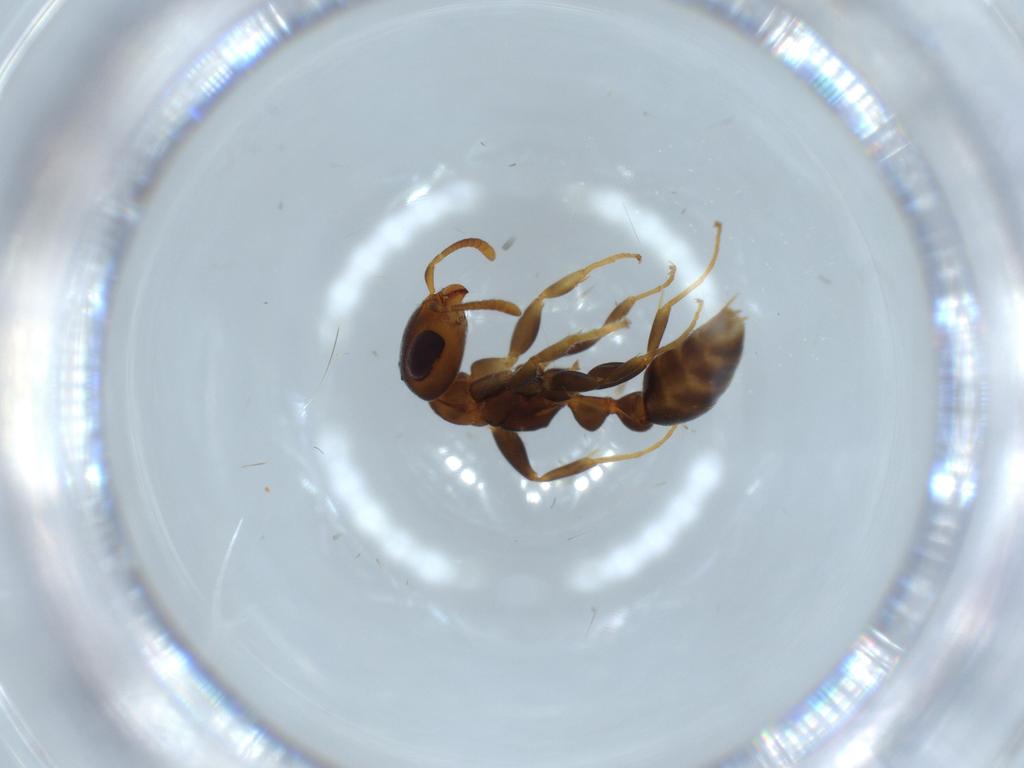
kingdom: Animalia
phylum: Arthropoda
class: Insecta
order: Hymenoptera
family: Formicidae
